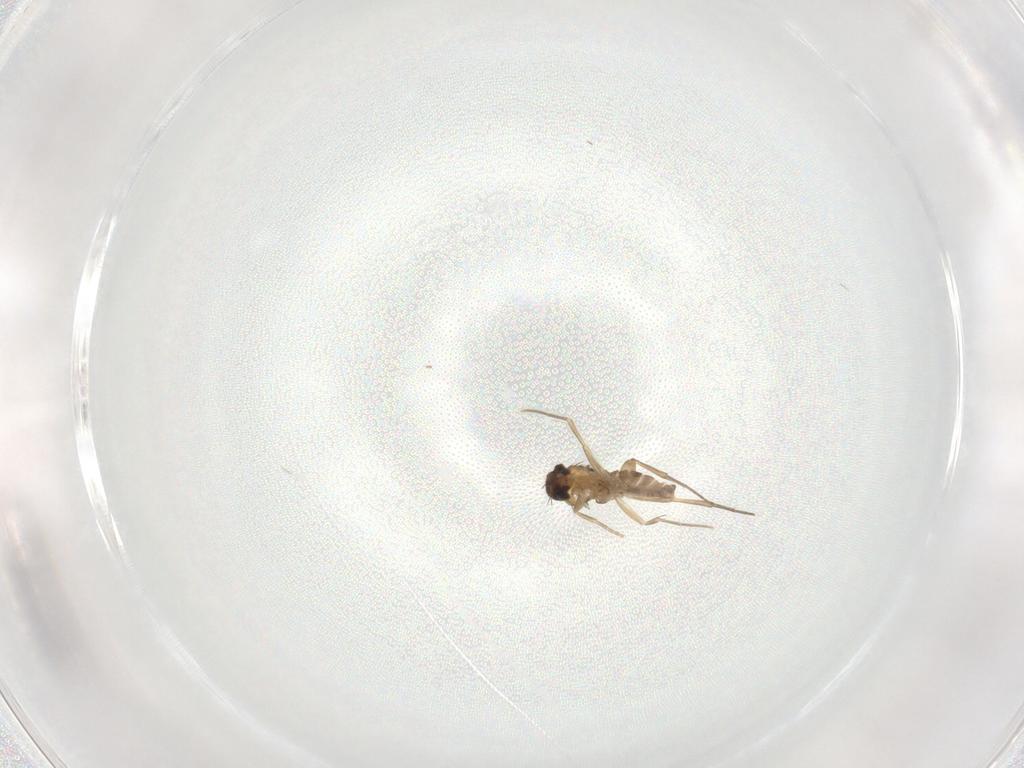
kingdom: Animalia
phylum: Arthropoda
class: Insecta
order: Diptera
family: Phoridae
